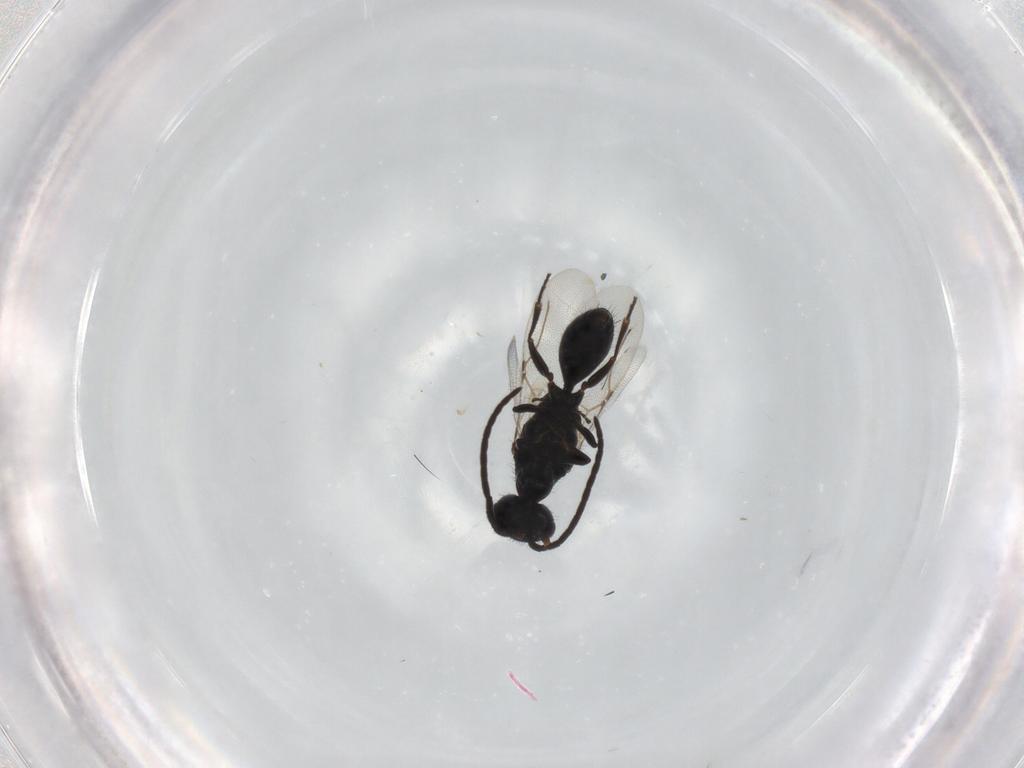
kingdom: Animalia
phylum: Arthropoda
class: Insecta
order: Hymenoptera
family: Bethylidae
